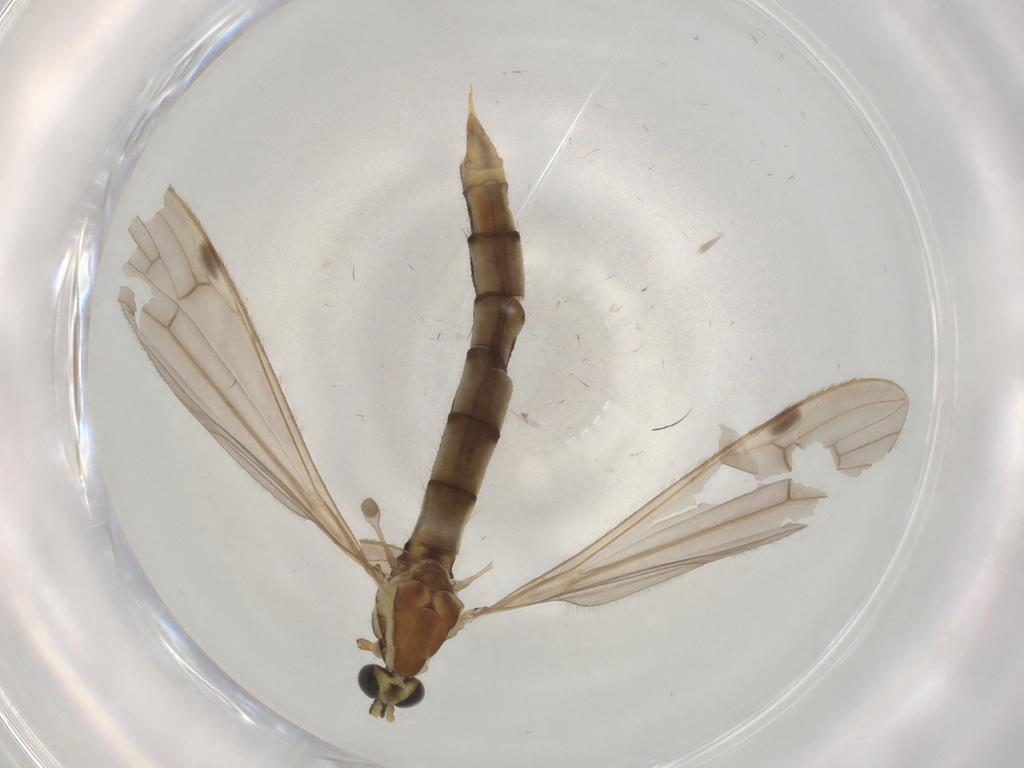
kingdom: Animalia
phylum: Arthropoda
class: Insecta
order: Diptera
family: Limoniidae
